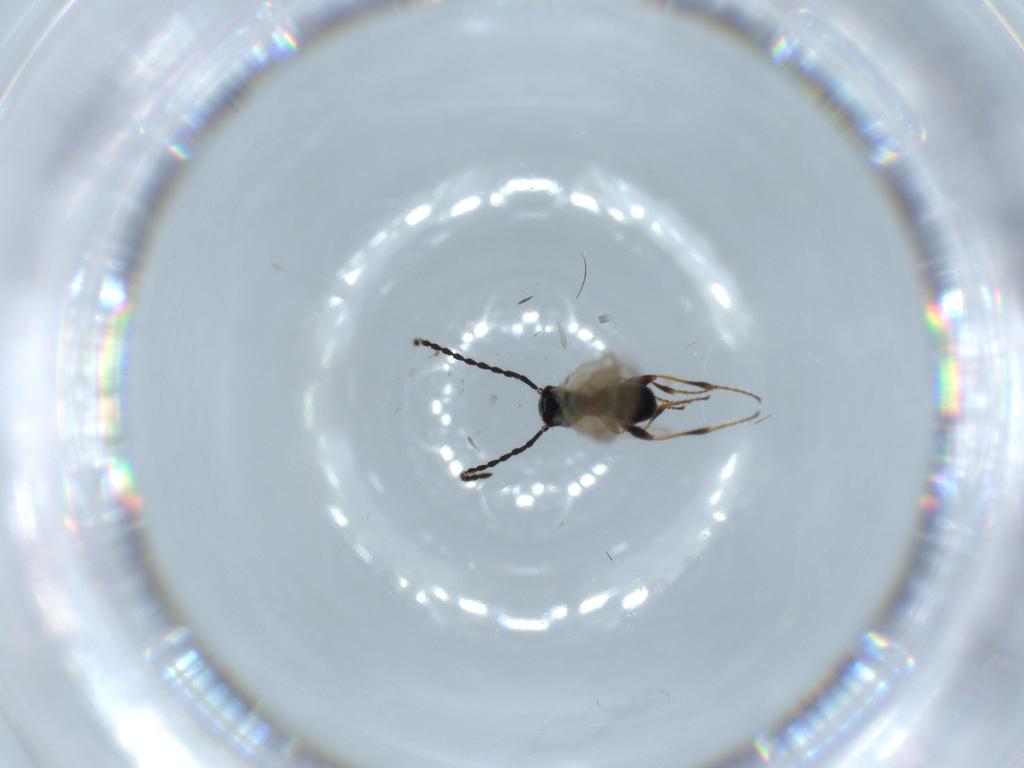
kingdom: Animalia
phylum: Arthropoda
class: Insecta
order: Hymenoptera
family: Diapriidae
